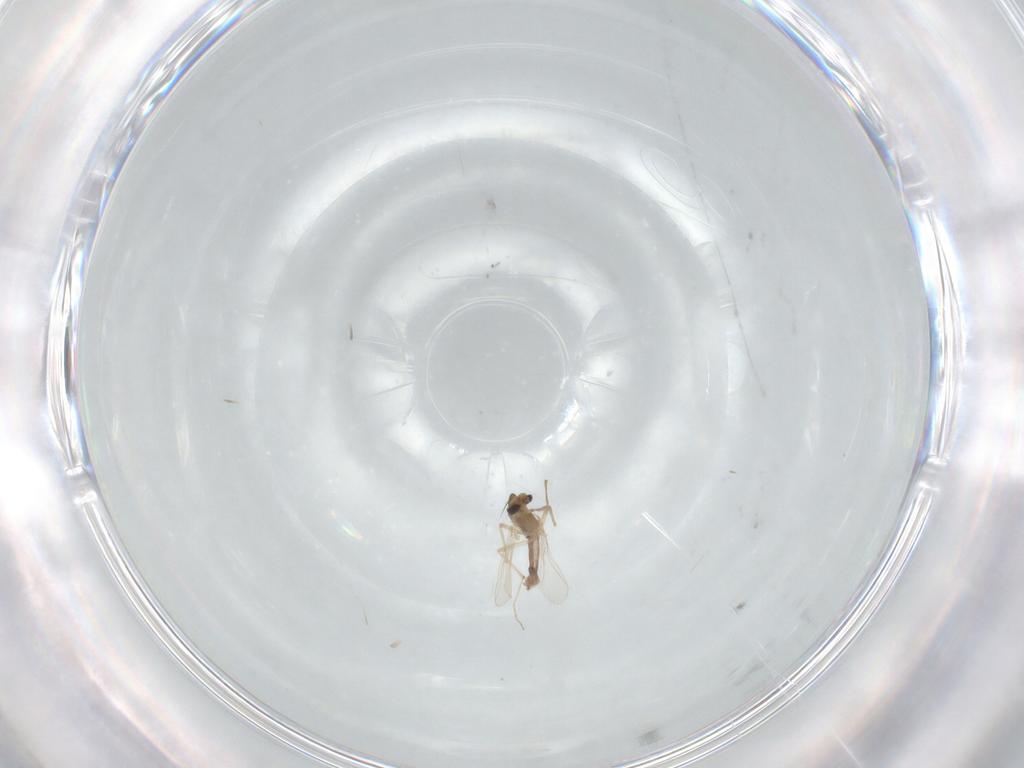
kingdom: Animalia
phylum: Arthropoda
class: Insecta
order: Diptera
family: Chironomidae
